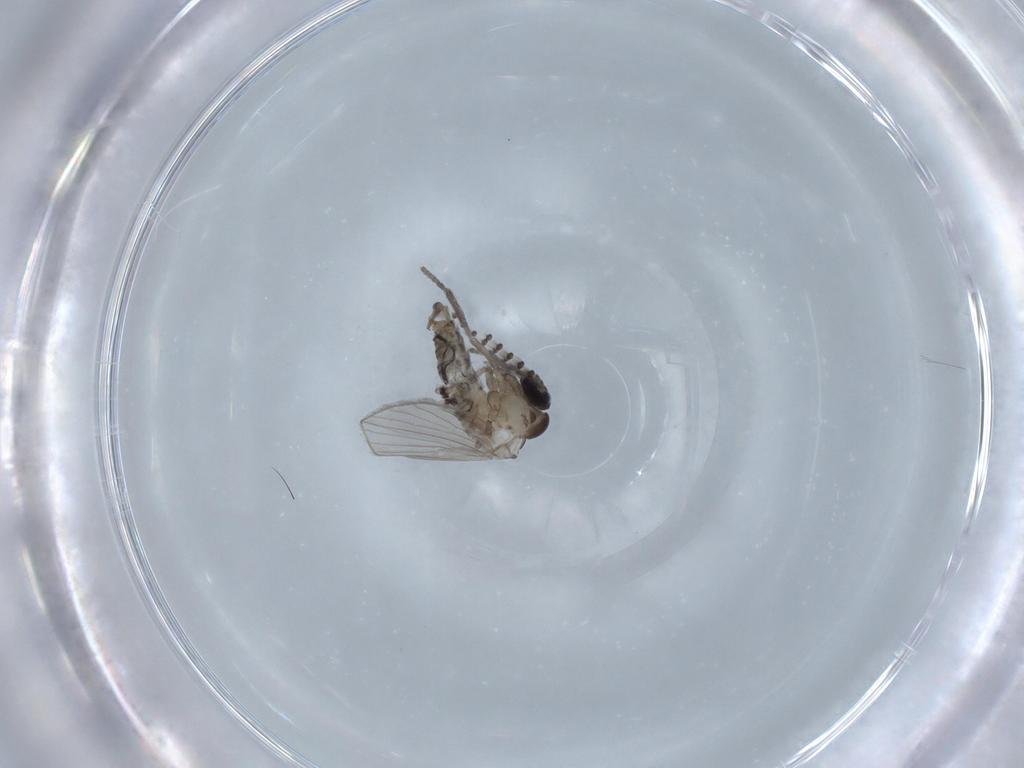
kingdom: Animalia
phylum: Arthropoda
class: Insecta
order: Diptera
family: Psychodidae
